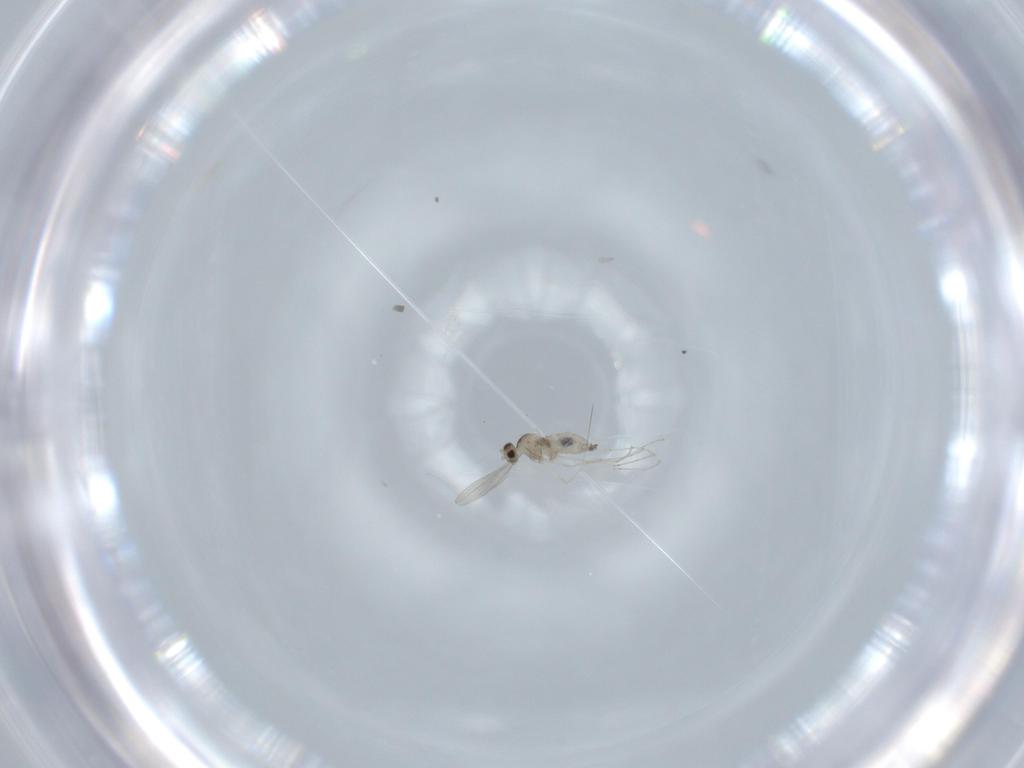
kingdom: Animalia
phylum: Arthropoda
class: Insecta
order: Diptera
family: Cecidomyiidae
